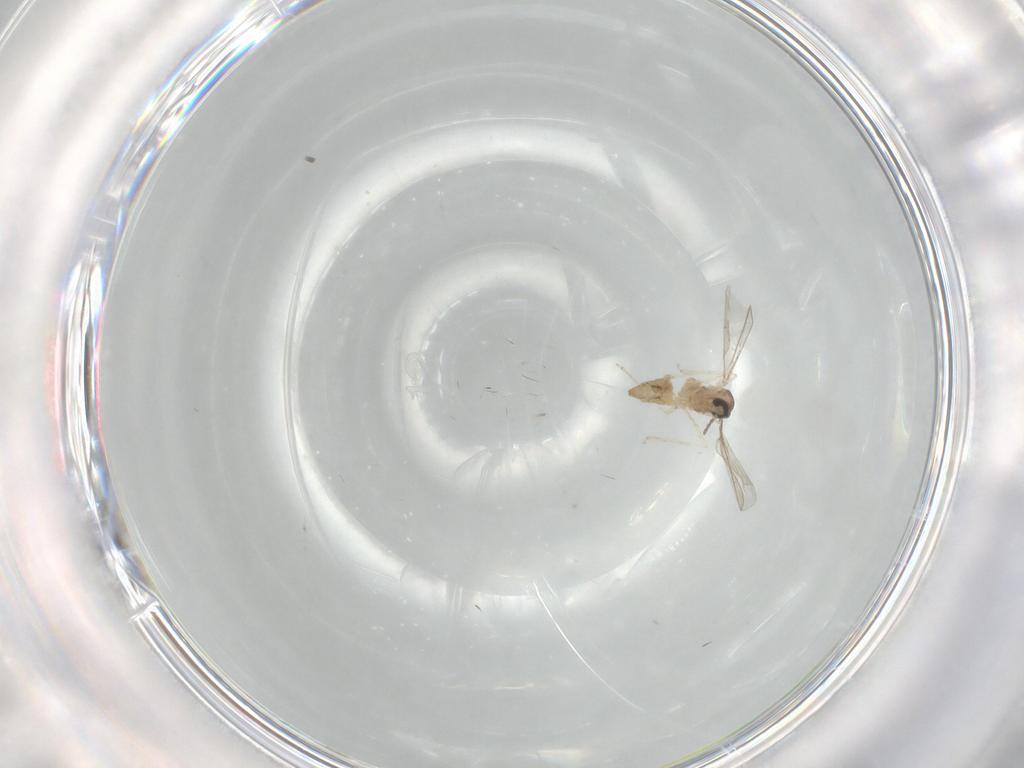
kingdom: Animalia
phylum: Arthropoda
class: Insecta
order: Diptera
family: Cecidomyiidae
